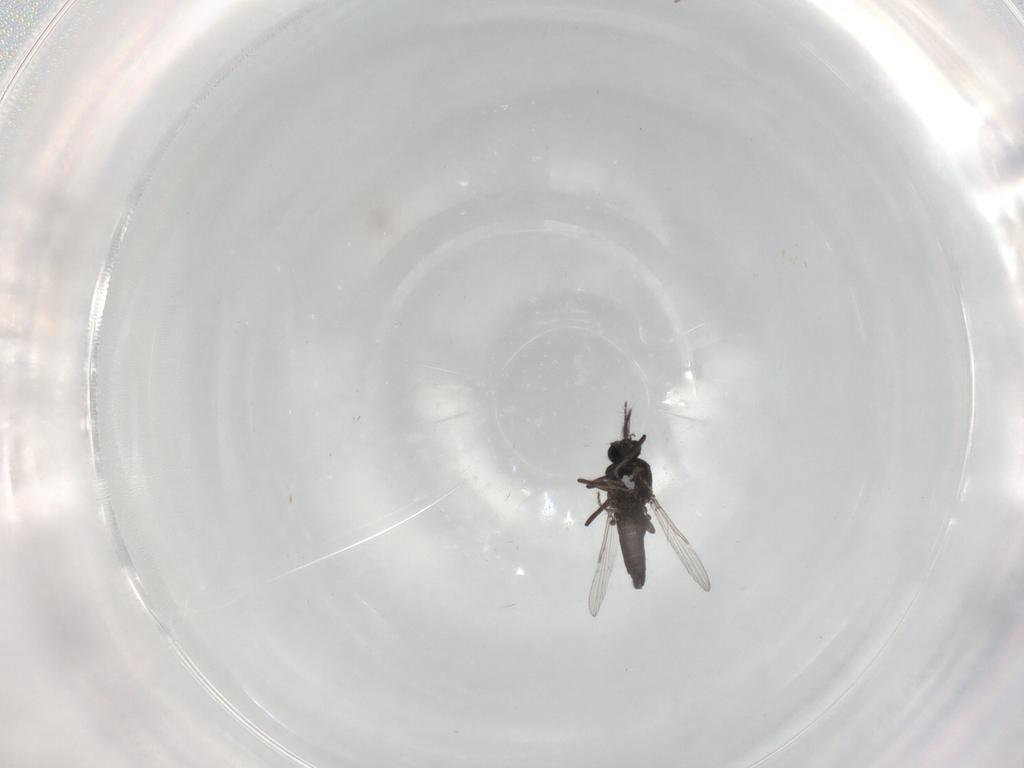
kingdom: Animalia
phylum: Arthropoda
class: Insecta
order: Diptera
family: Ceratopogonidae
